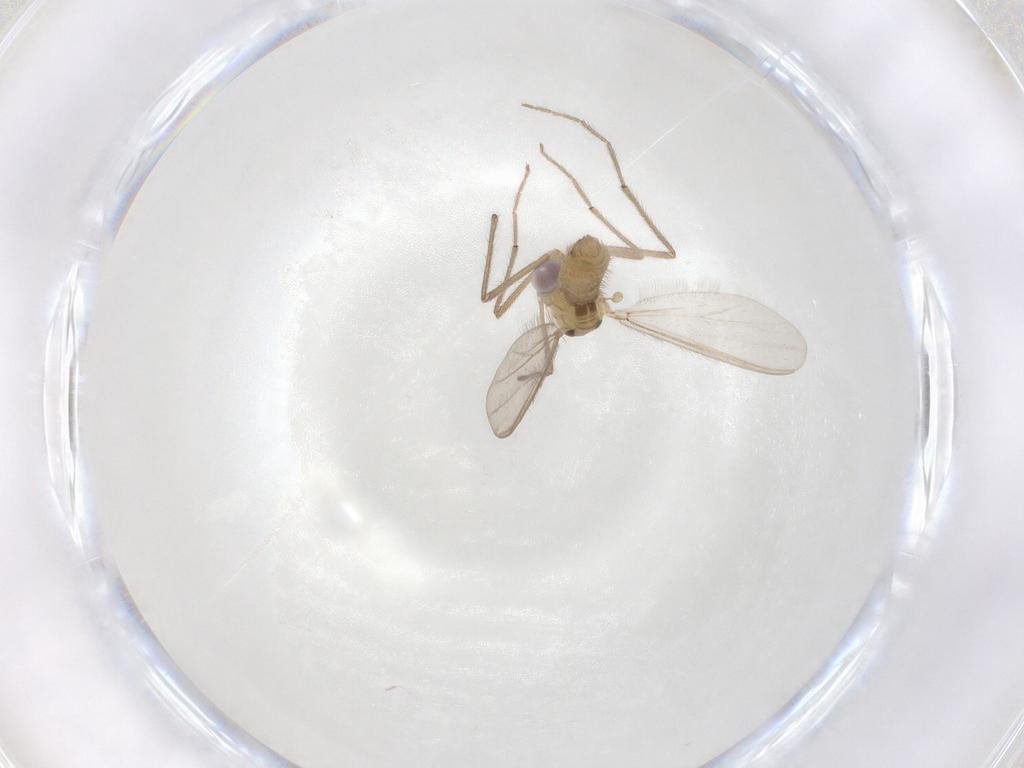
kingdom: Animalia
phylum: Arthropoda
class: Insecta
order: Diptera
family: Chironomidae
